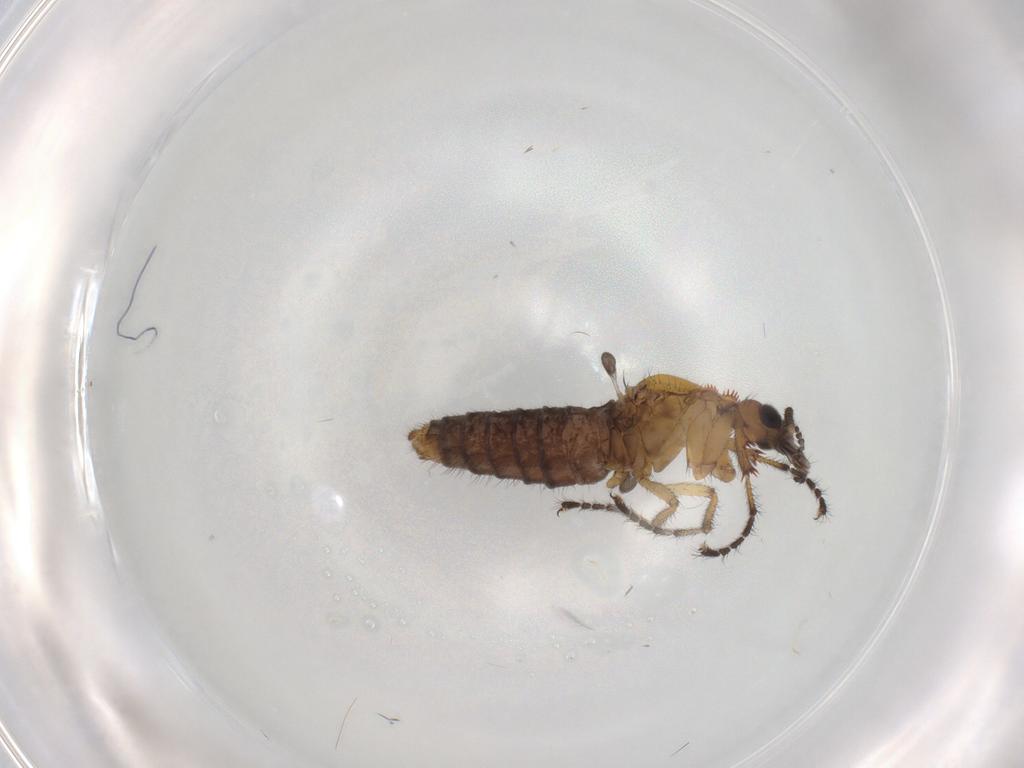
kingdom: Animalia
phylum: Arthropoda
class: Insecta
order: Diptera
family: Bibionidae
